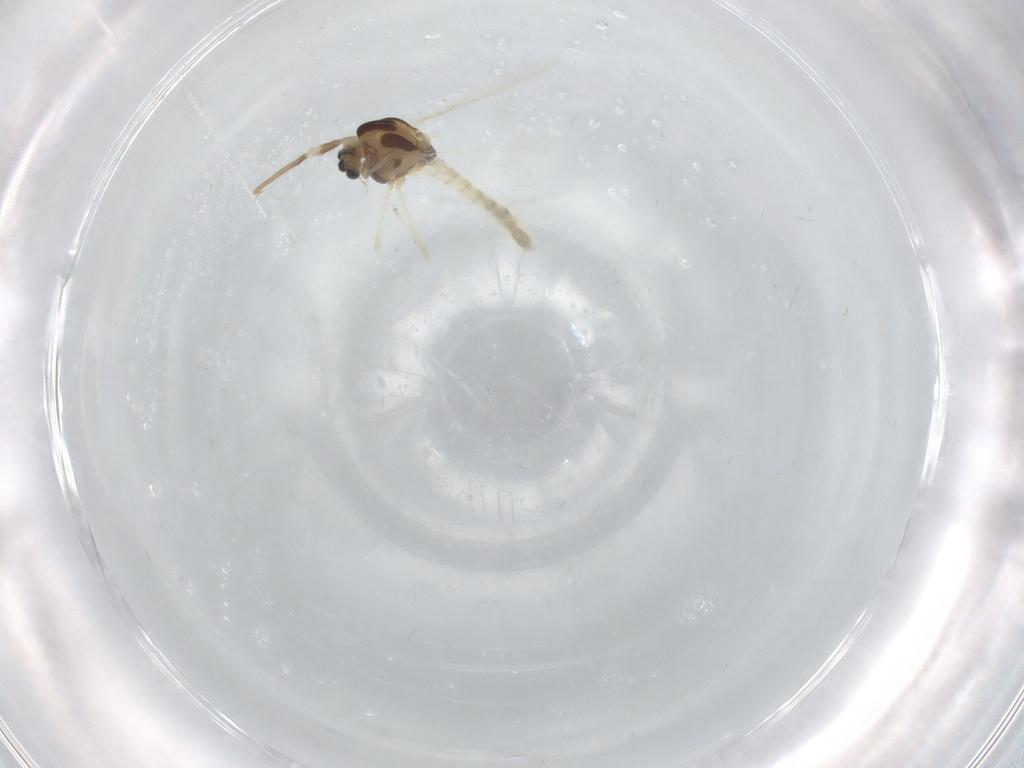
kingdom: Animalia
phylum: Arthropoda
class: Insecta
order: Diptera
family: Chironomidae
